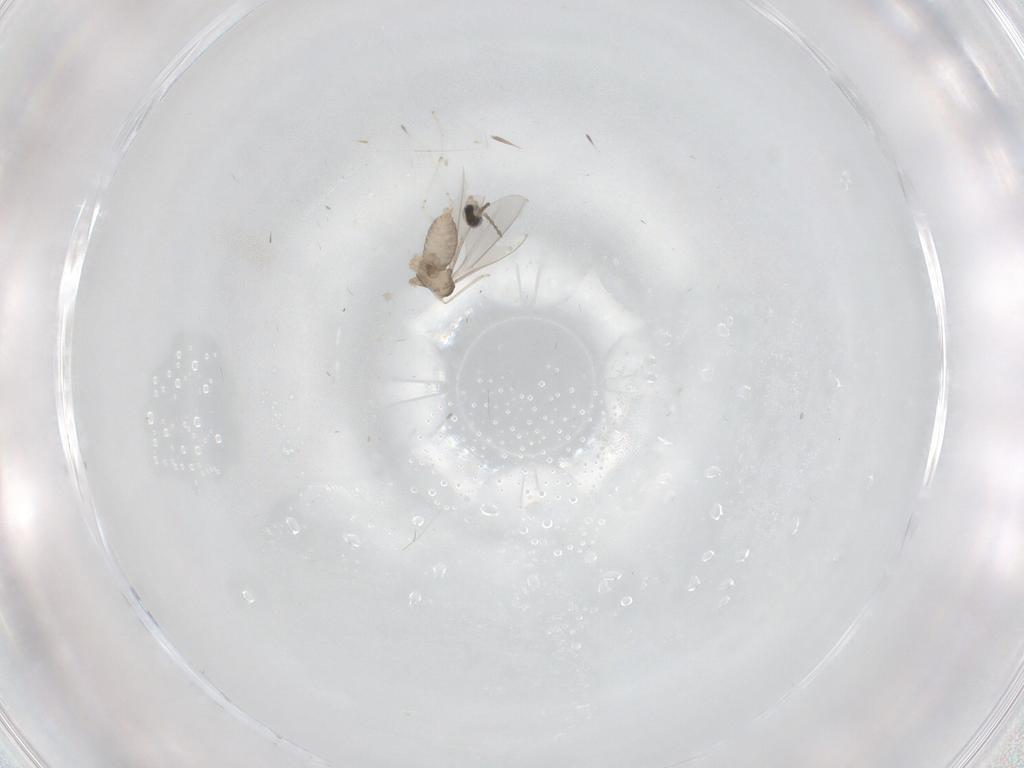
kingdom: Animalia
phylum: Arthropoda
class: Insecta
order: Diptera
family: Cecidomyiidae
